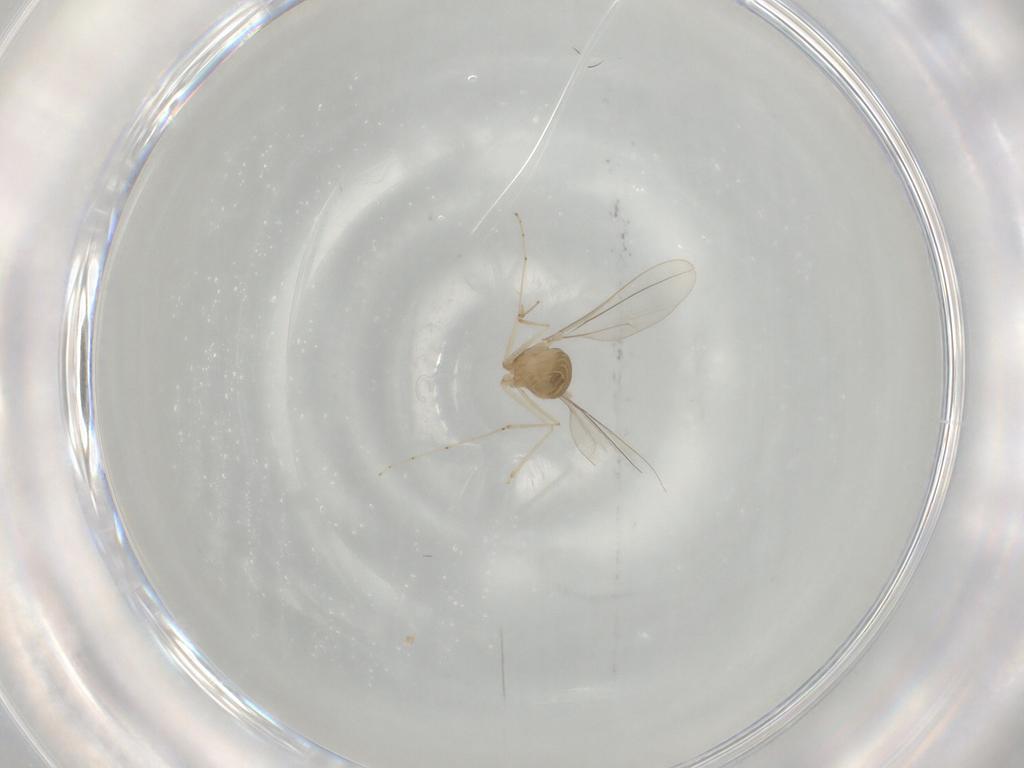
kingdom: Animalia
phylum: Arthropoda
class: Insecta
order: Diptera
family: Cecidomyiidae
